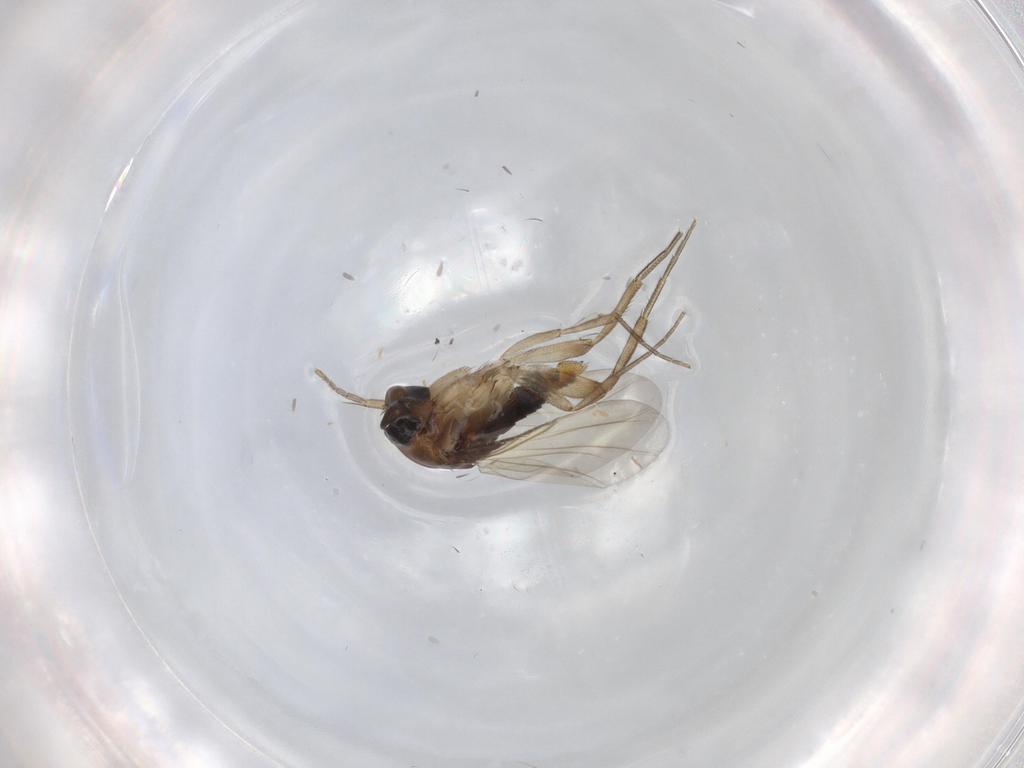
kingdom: Animalia
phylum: Arthropoda
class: Insecta
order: Diptera
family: Phoridae
